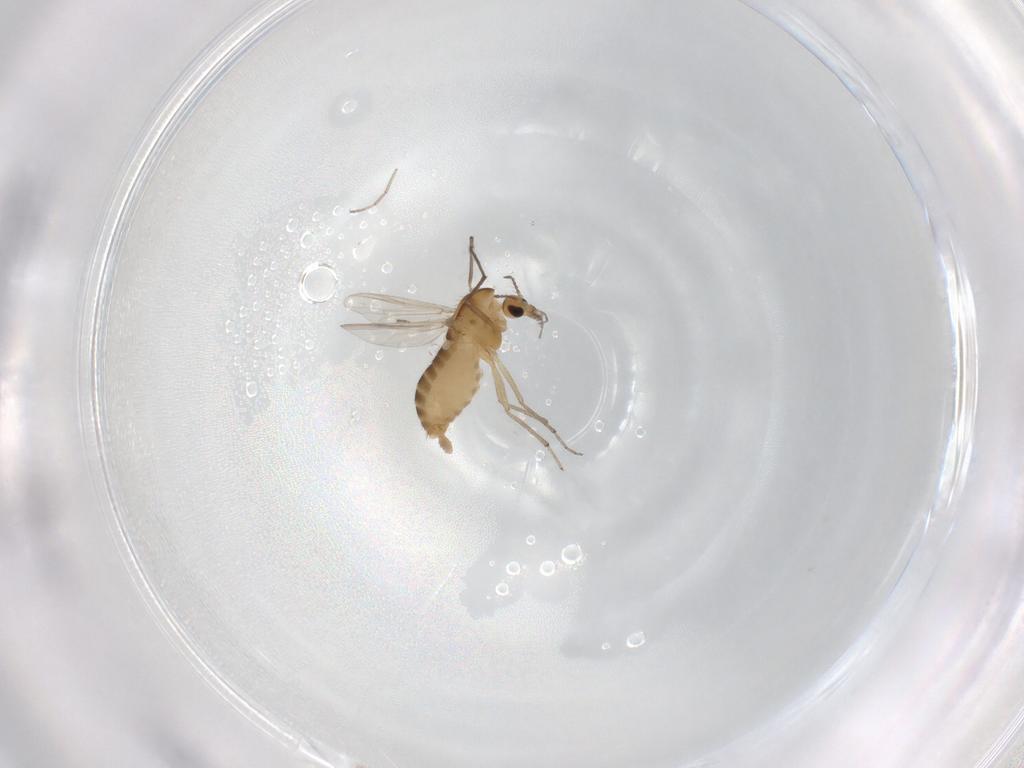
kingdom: Animalia
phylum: Arthropoda
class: Insecta
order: Diptera
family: Chironomidae
